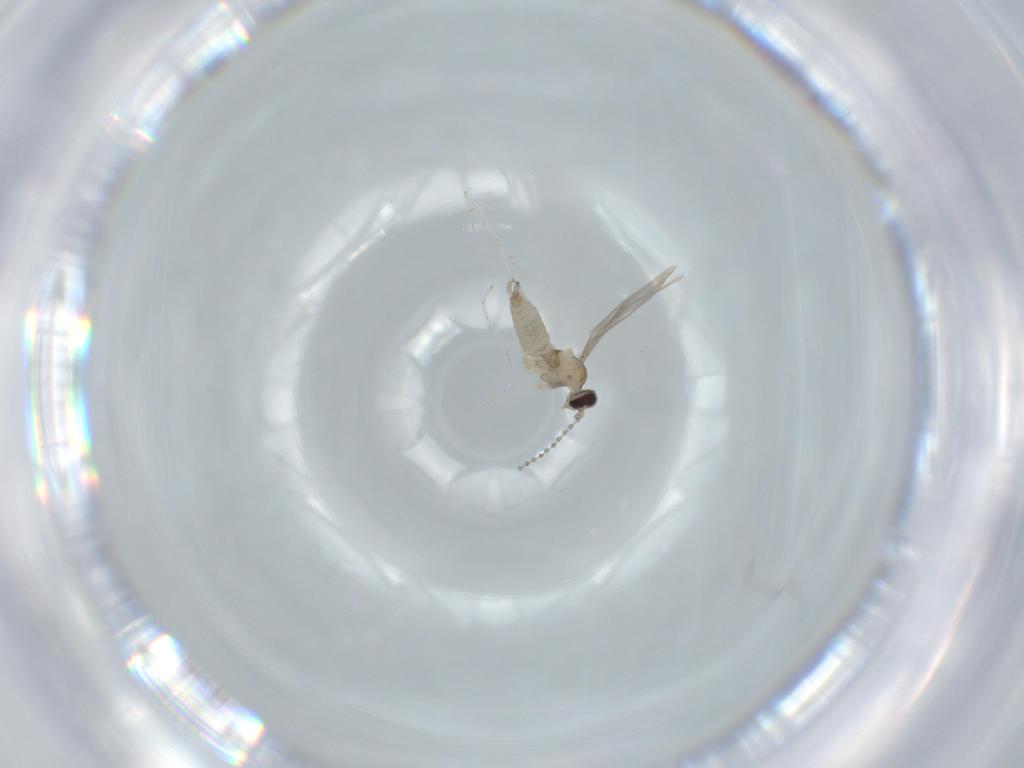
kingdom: Animalia
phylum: Arthropoda
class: Insecta
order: Diptera
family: Cecidomyiidae
